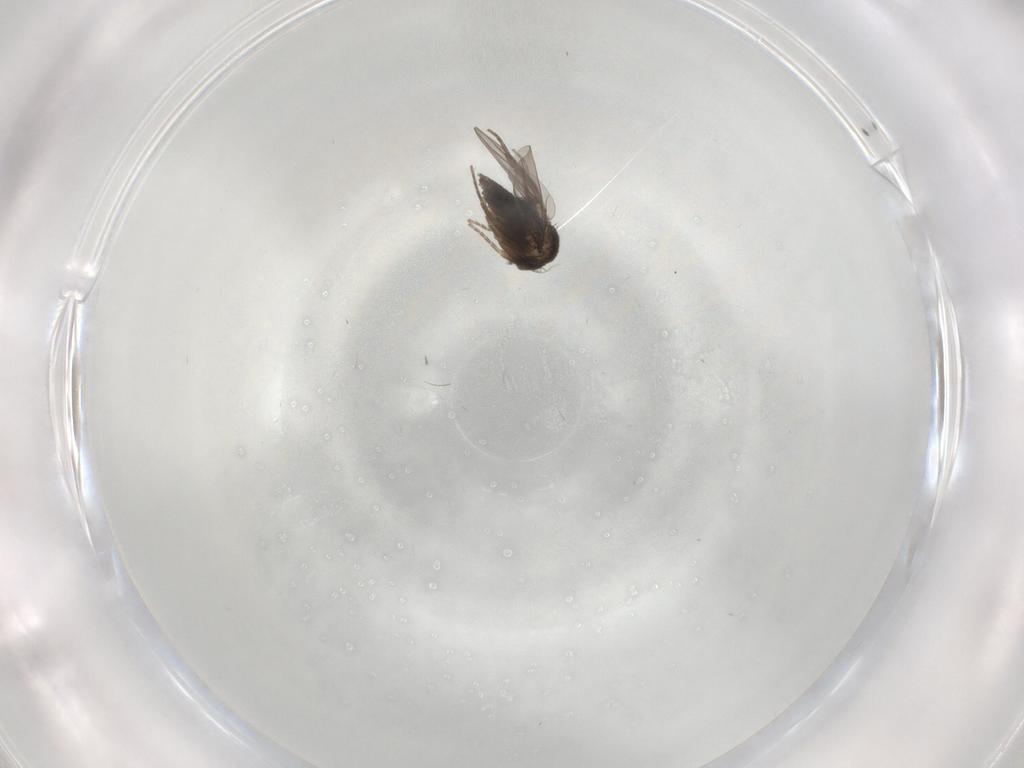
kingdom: Animalia
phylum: Arthropoda
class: Insecta
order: Diptera
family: Phoridae
